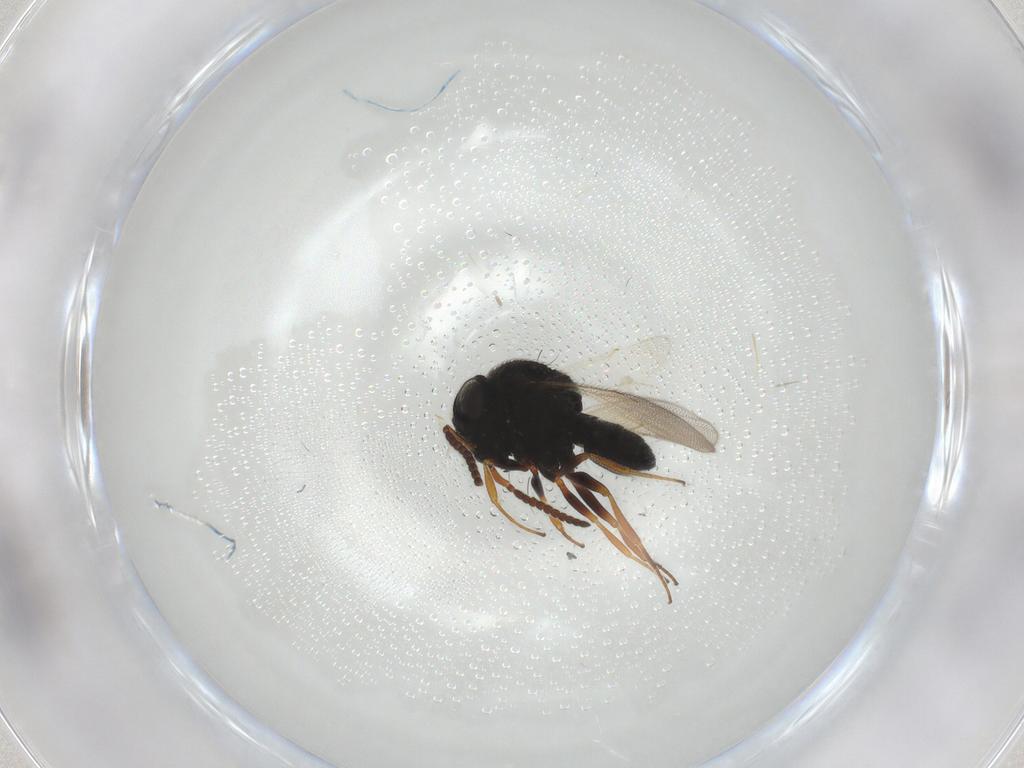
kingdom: Animalia
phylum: Arthropoda
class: Insecta
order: Hymenoptera
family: Scelionidae
